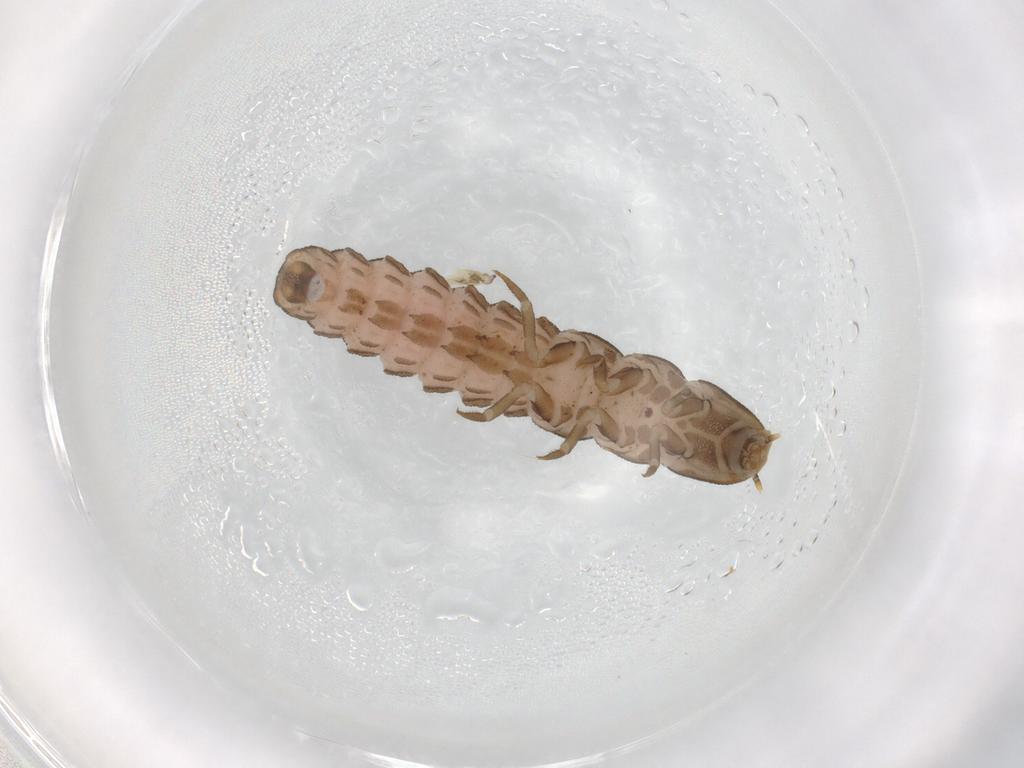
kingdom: Animalia
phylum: Arthropoda
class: Insecta
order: Coleoptera
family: Lampyridae
